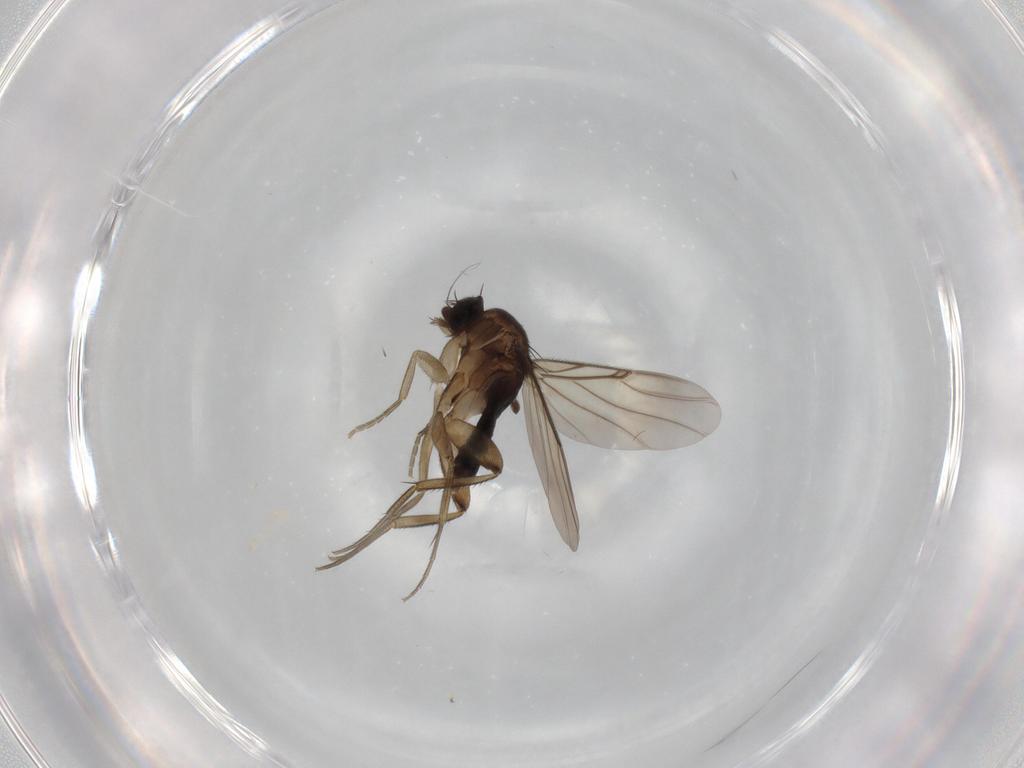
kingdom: Animalia
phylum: Arthropoda
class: Insecta
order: Diptera
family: Phoridae
